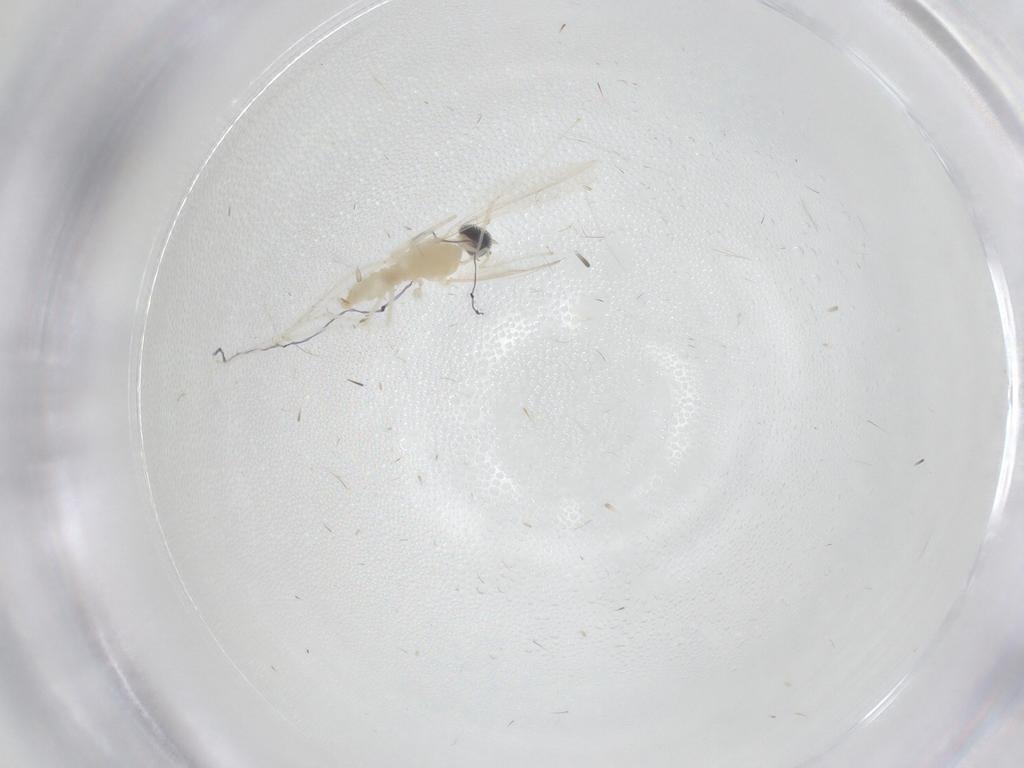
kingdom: Animalia
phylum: Arthropoda
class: Insecta
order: Diptera
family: Cecidomyiidae
